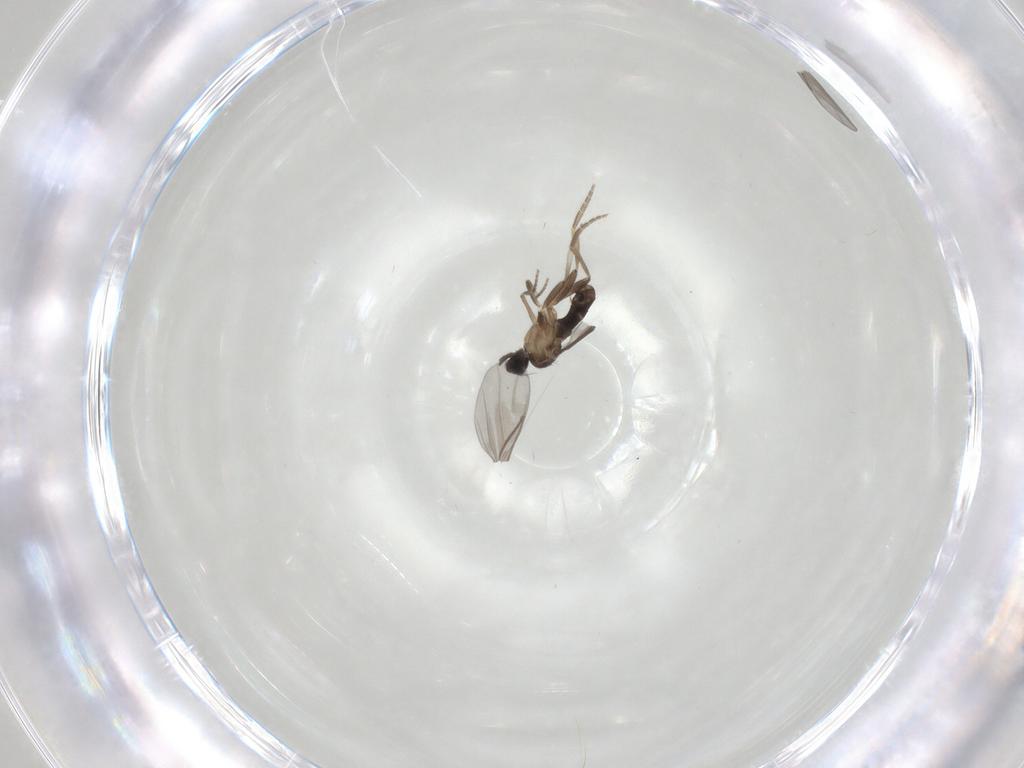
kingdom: Animalia
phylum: Arthropoda
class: Insecta
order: Diptera
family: Phoridae
